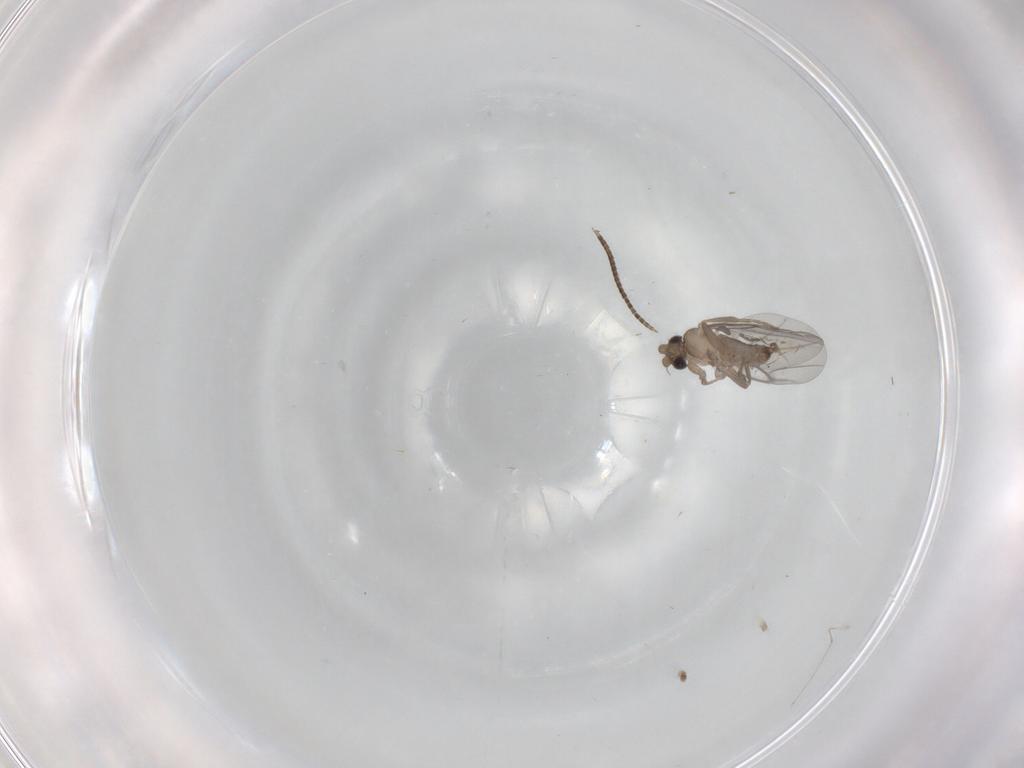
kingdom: Animalia
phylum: Arthropoda
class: Insecta
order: Diptera
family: Cecidomyiidae
